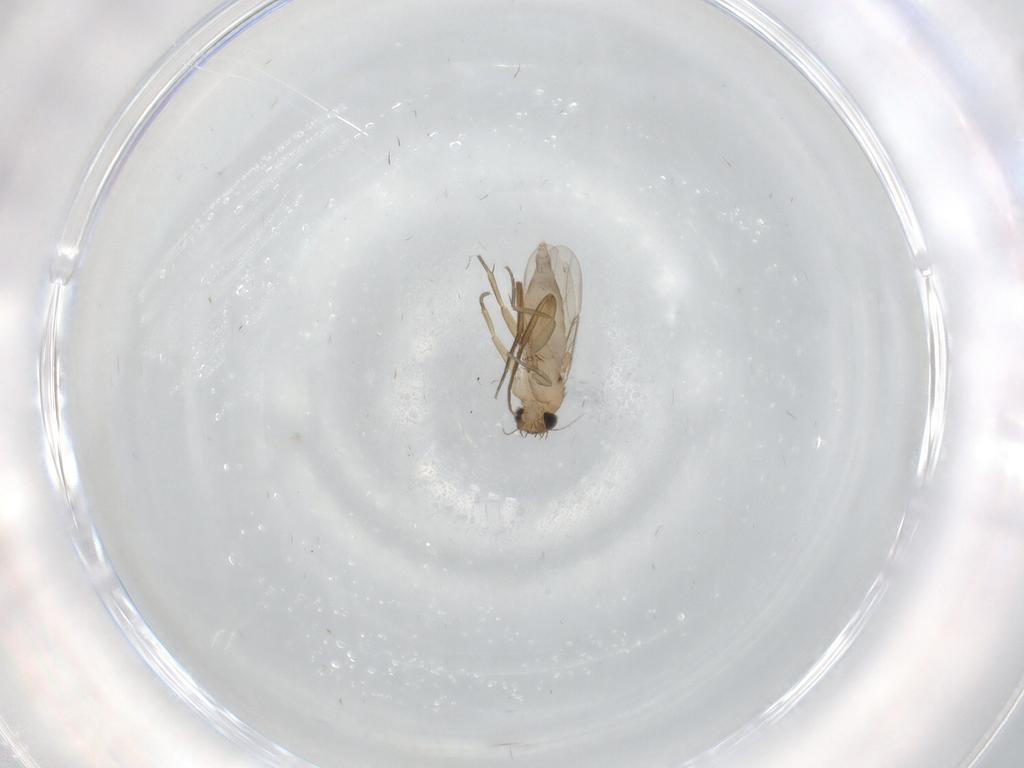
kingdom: Animalia
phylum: Arthropoda
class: Insecta
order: Diptera
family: Cecidomyiidae
